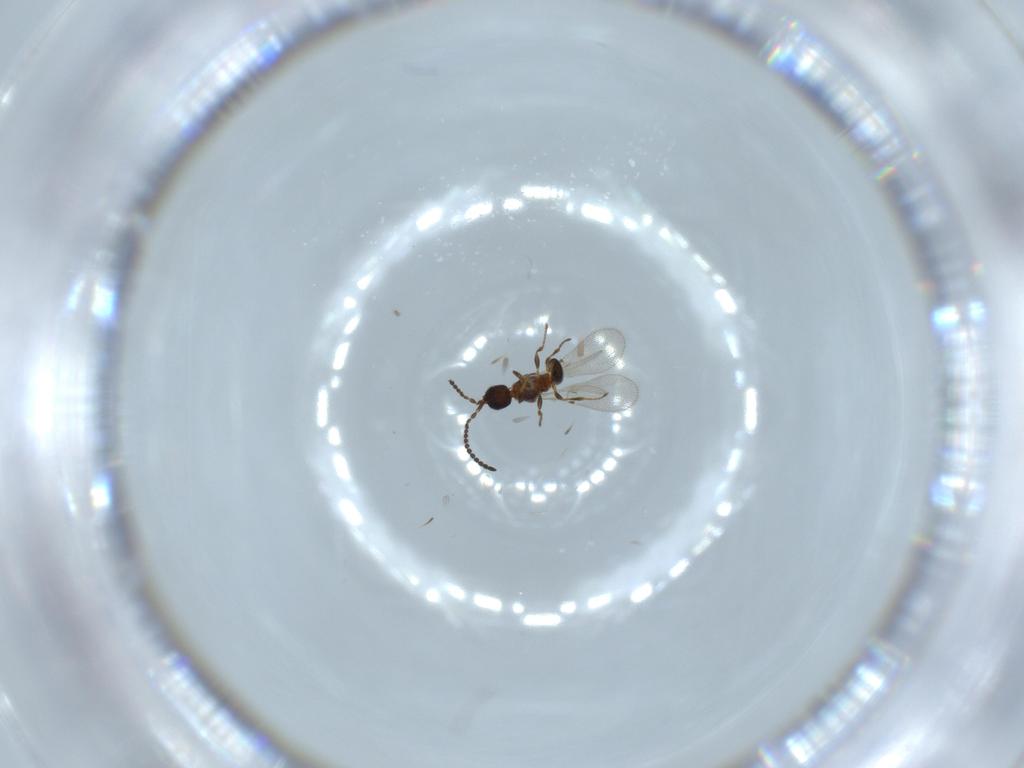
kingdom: Animalia
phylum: Arthropoda
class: Insecta
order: Hymenoptera
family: Diapriidae
